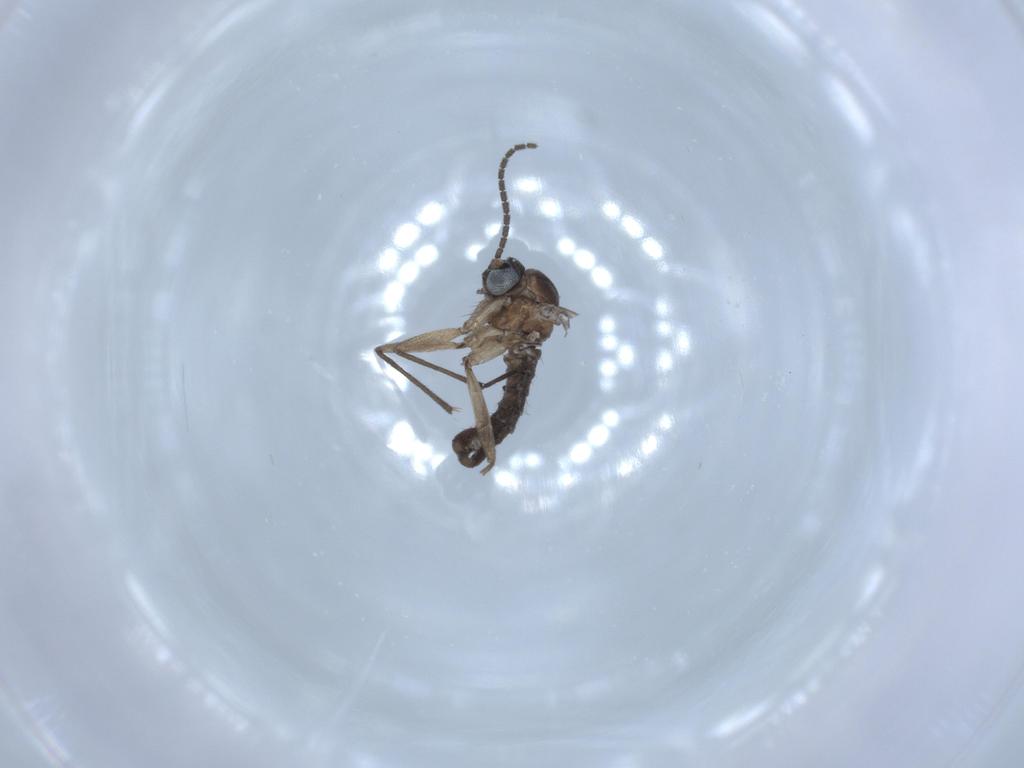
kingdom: Animalia
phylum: Arthropoda
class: Insecta
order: Diptera
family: Sciaridae
